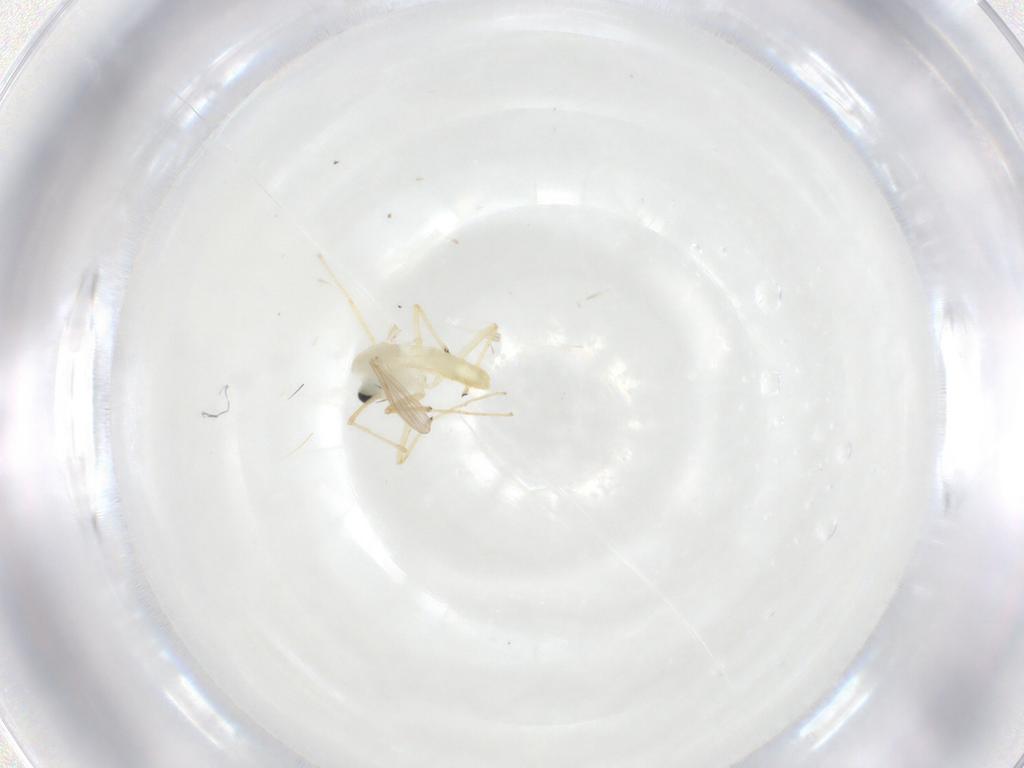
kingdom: Animalia
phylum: Arthropoda
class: Insecta
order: Diptera
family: Chironomidae
